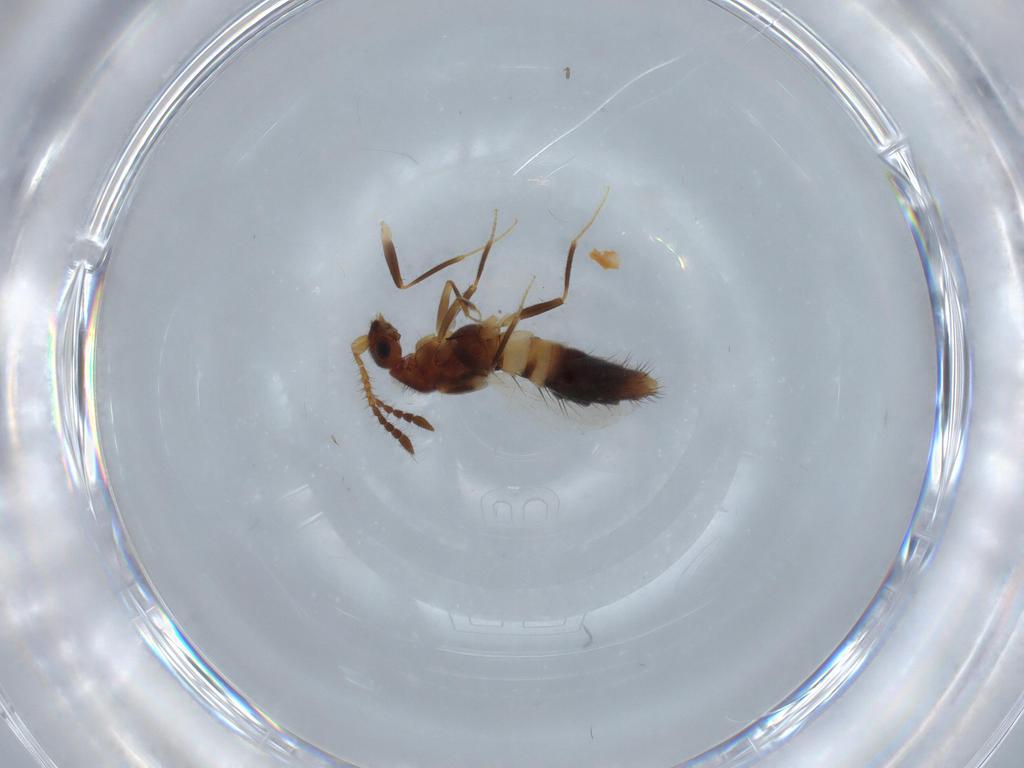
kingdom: Animalia
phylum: Arthropoda
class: Insecta
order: Coleoptera
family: Staphylinidae
